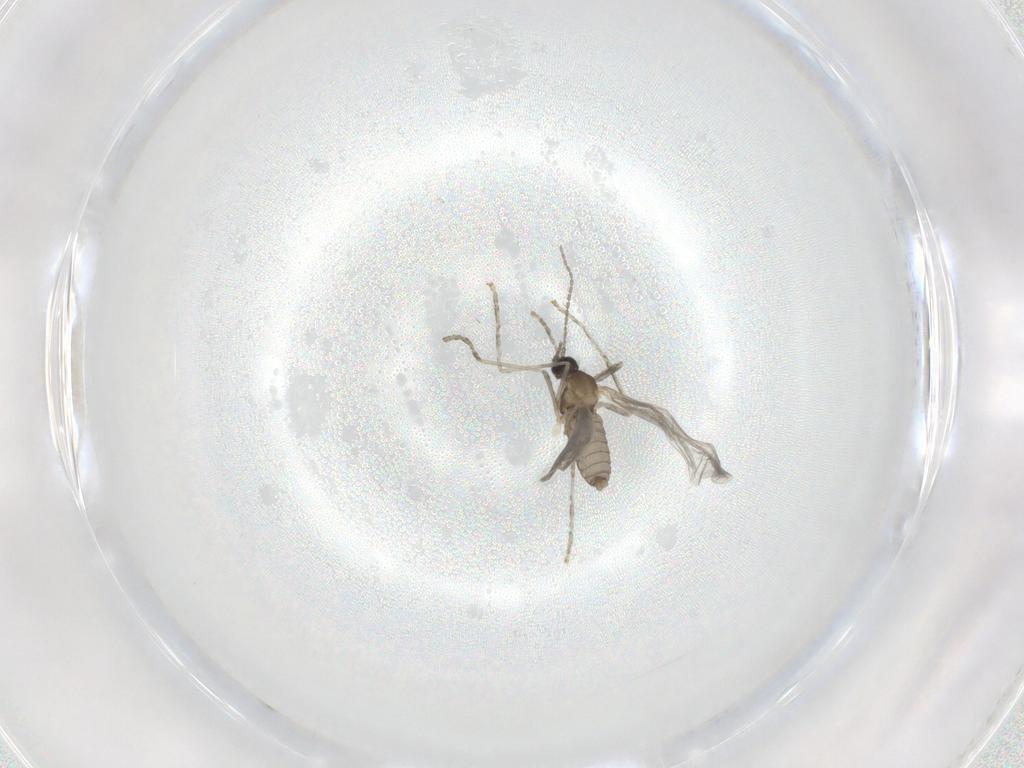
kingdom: Animalia
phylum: Arthropoda
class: Insecta
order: Diptera
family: Cecidomyiidae
